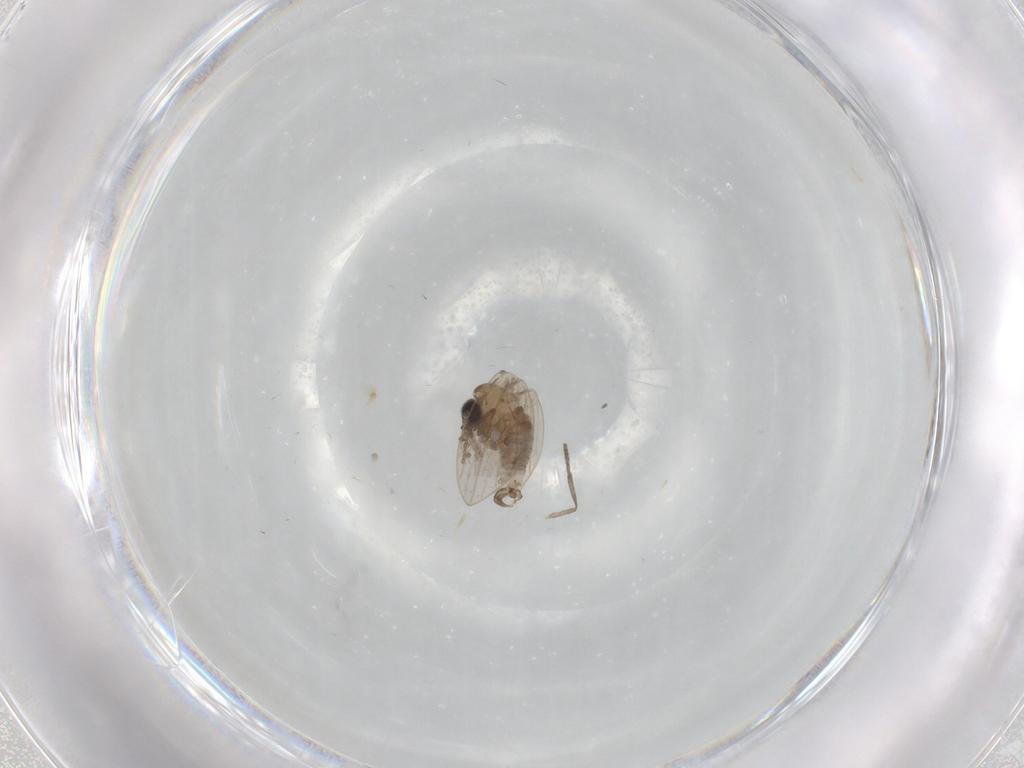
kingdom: Animalia
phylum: Arthropoda
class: Insecta
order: Diptera
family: Psychodidae
